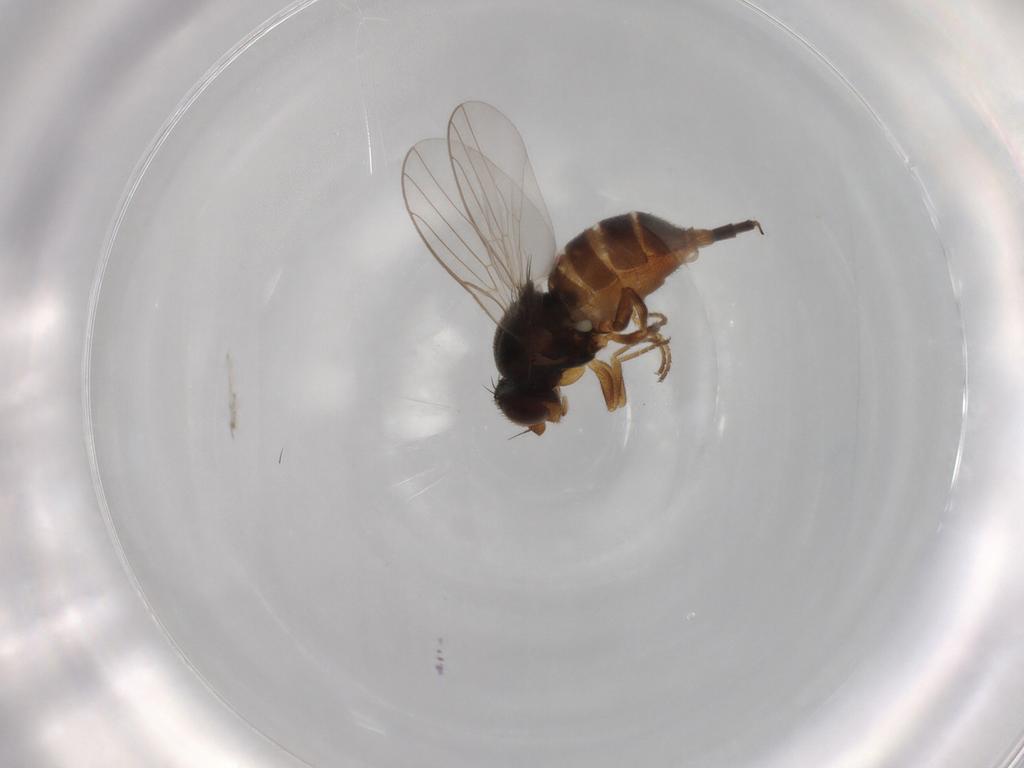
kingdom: Animalia
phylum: Arthropoda
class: Insecta
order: Diptera
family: Chloropidae
